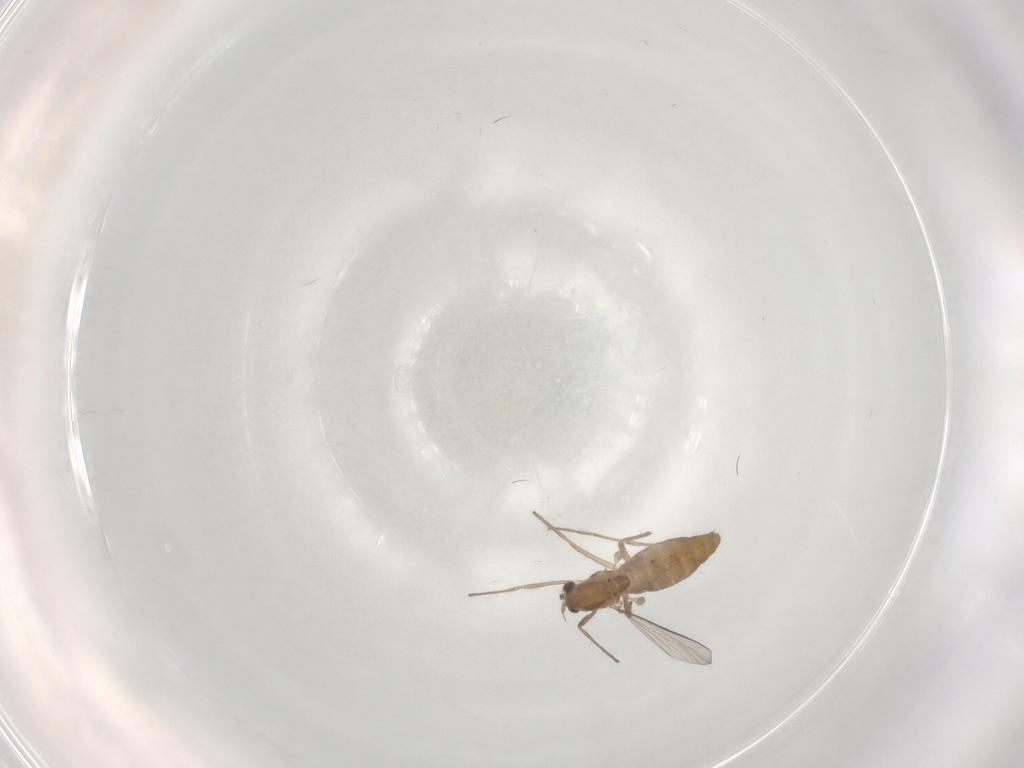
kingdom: Animalia
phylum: Arthropoda
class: Insecta
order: Diptera
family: Chironomidae
